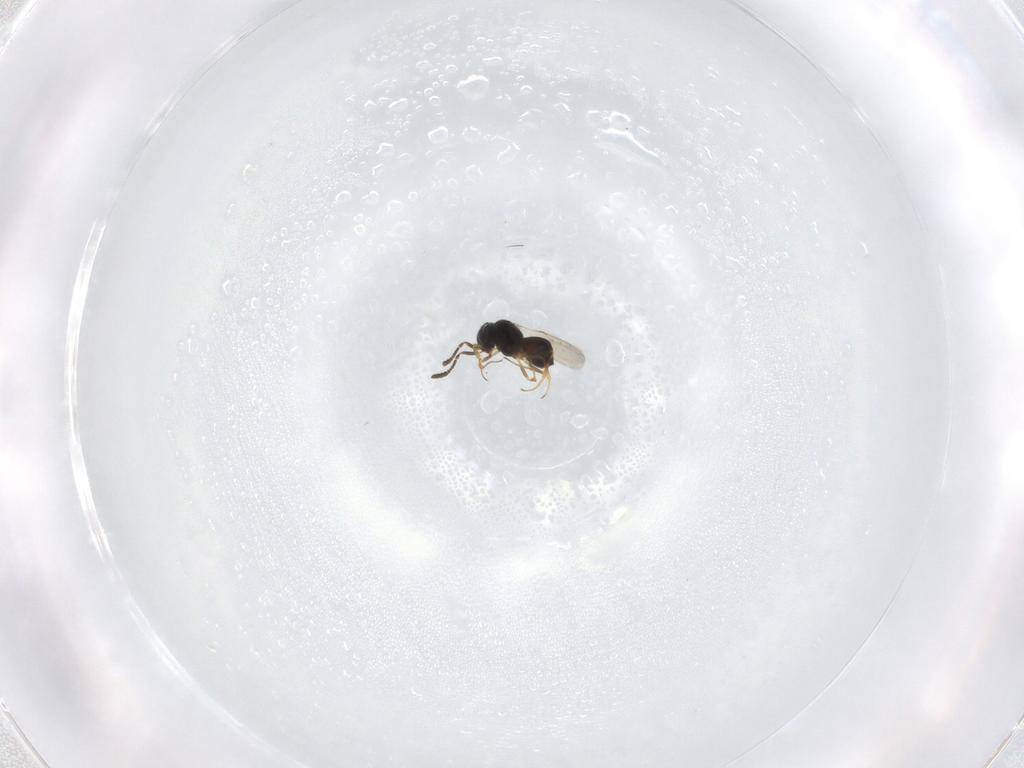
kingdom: Animalia
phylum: Arthropoda
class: Insecta
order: Hymenoptera
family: Scelionidae
